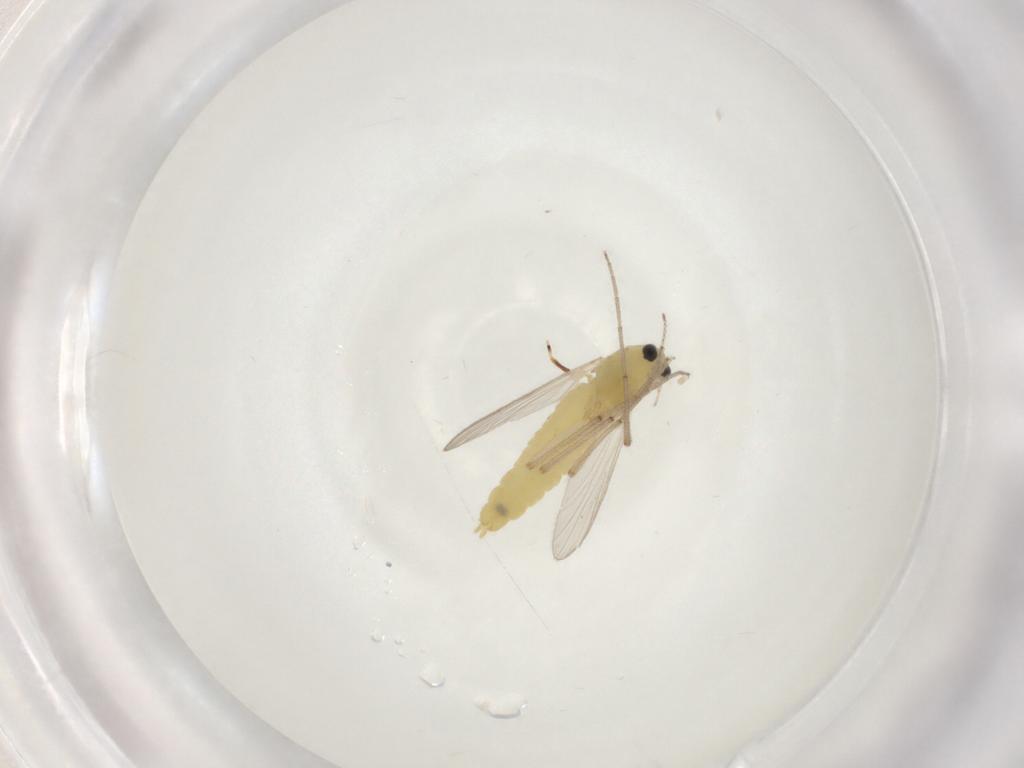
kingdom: Animalia
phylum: Arthropoda
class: Insecta
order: Diptera
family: Chironomidae
